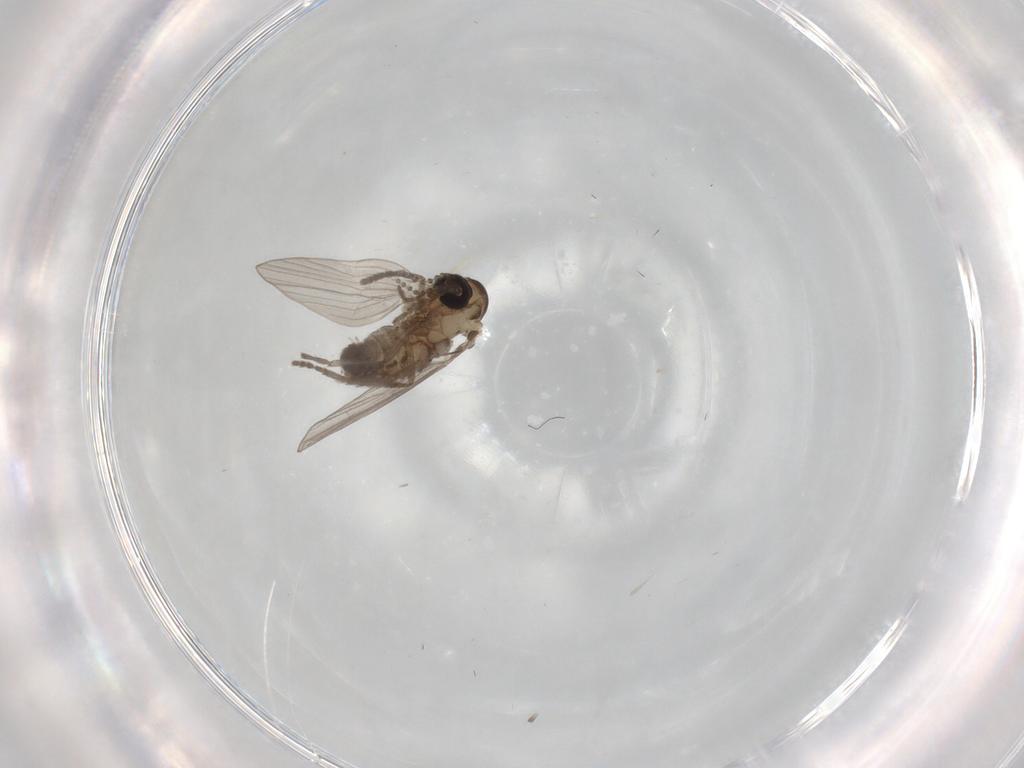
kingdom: Animalia
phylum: Arthropoda
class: Insecta
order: Diptera
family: Psychodidae
